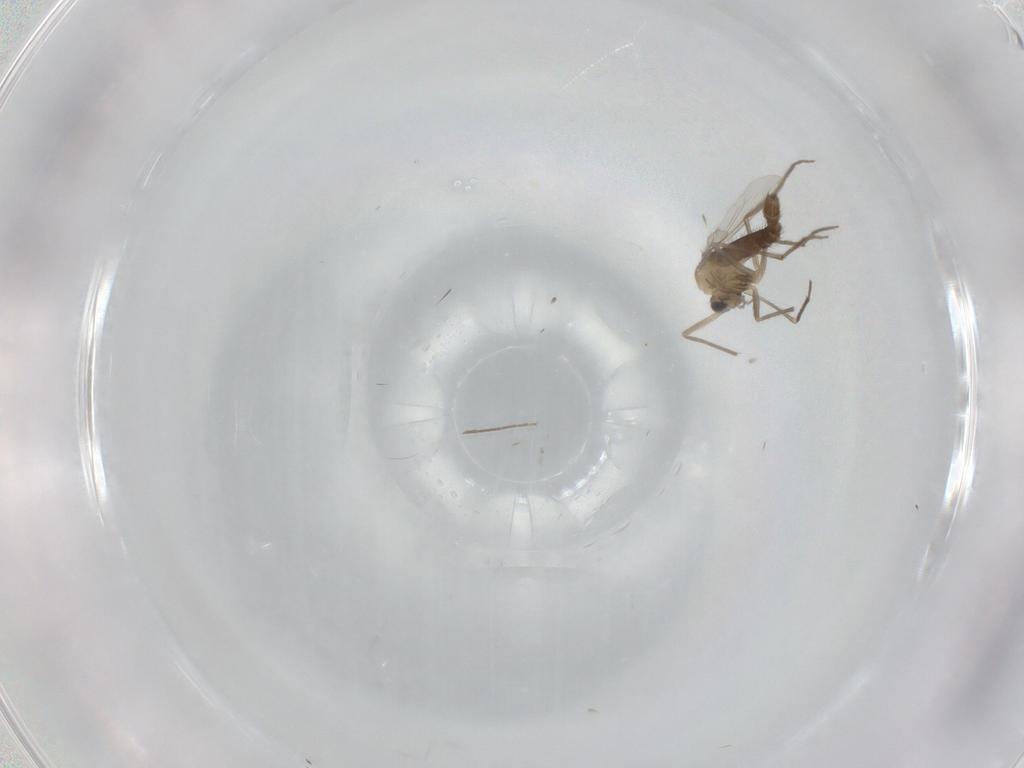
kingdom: Animalia
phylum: Arthropoda
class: Insecta
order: Diptera
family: Chironomidae
